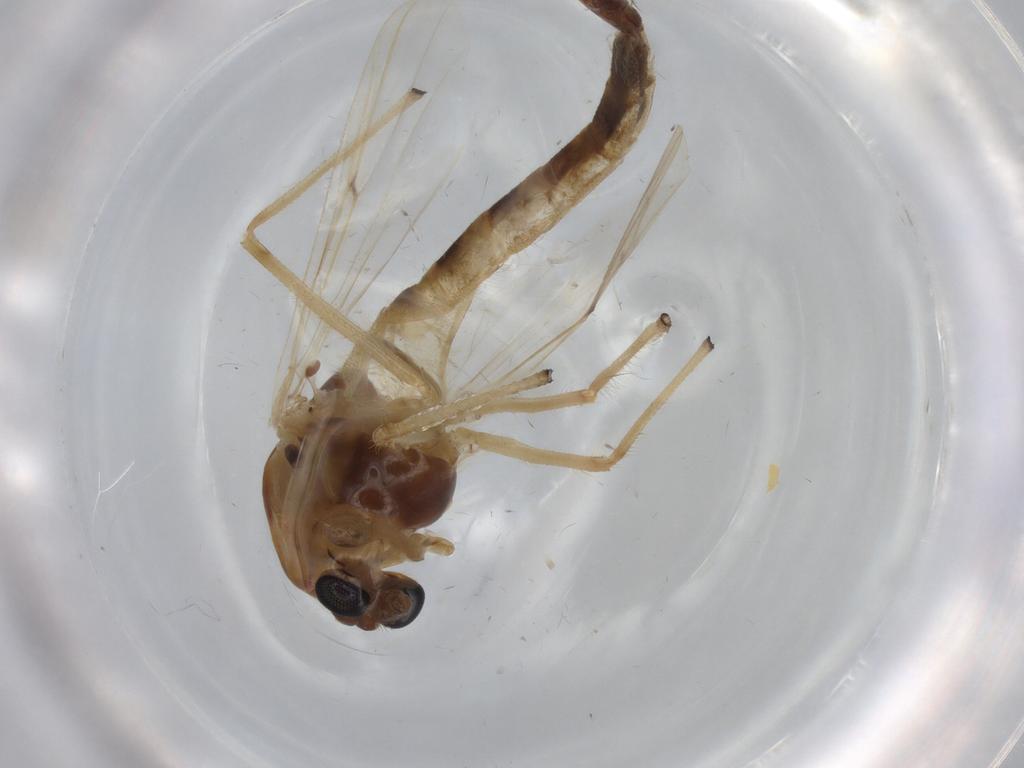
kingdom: Animalia
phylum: Arthropoda
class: Insecta
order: Diptera
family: Chironomidae
